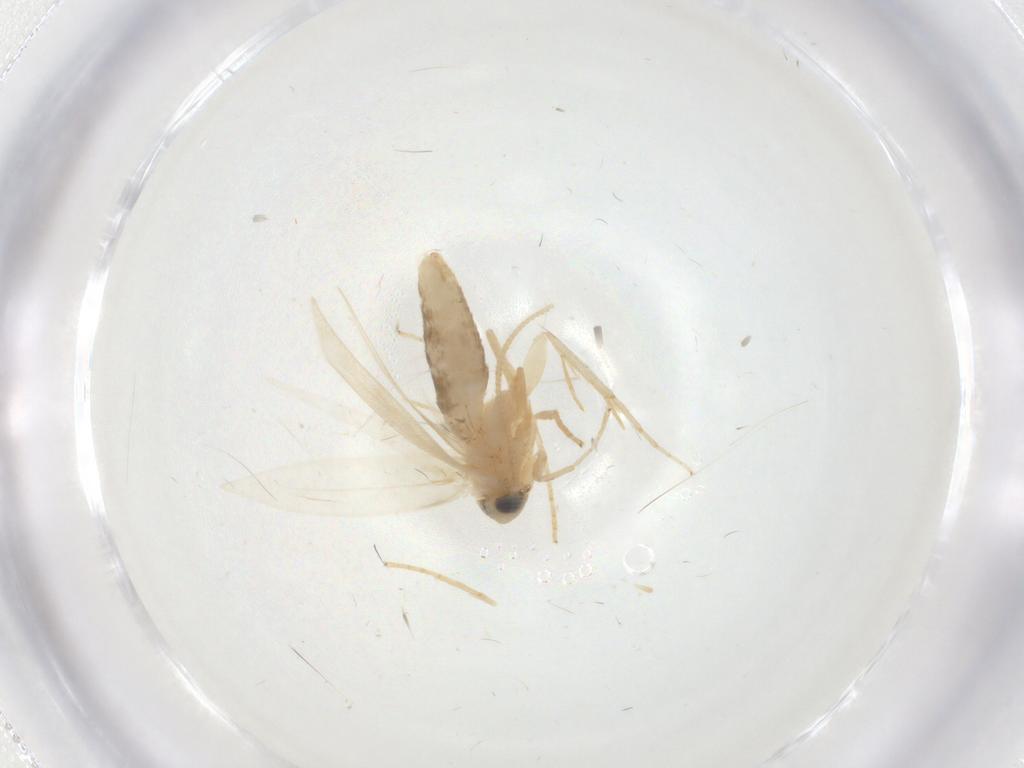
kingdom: Animalia
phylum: Arthropoda
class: Insecta
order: Lepidoptera
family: Opostegidae
